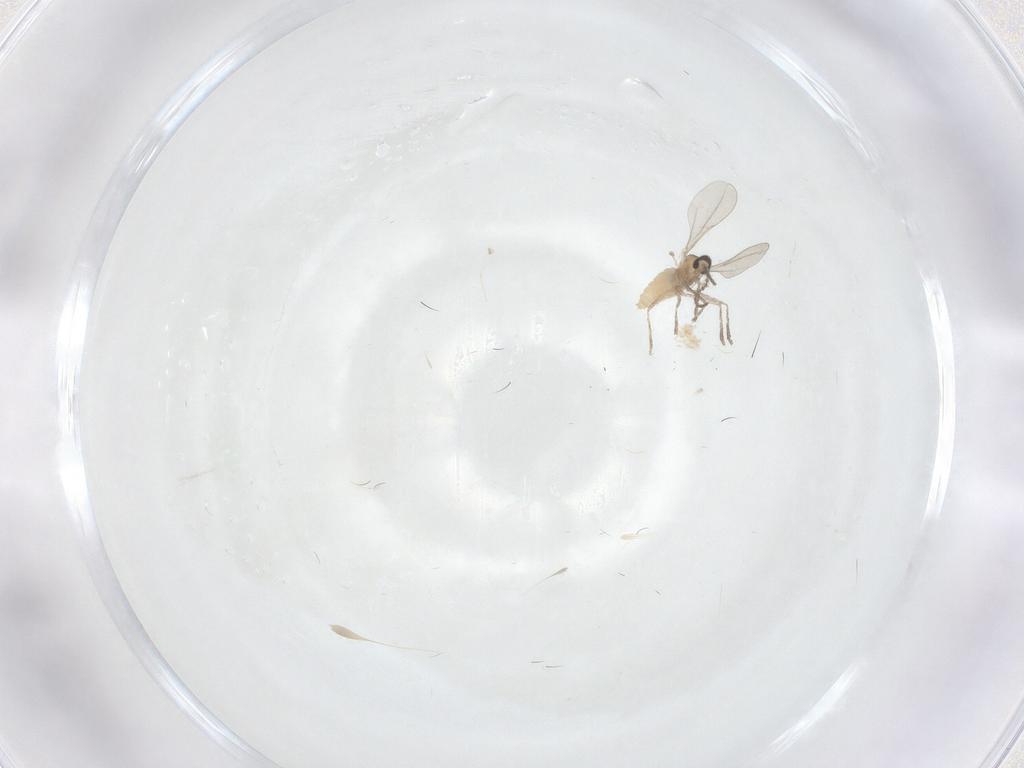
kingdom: Animalia
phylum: Arthropoda
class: Insecta
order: Diptera
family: Cecidomyiidae
